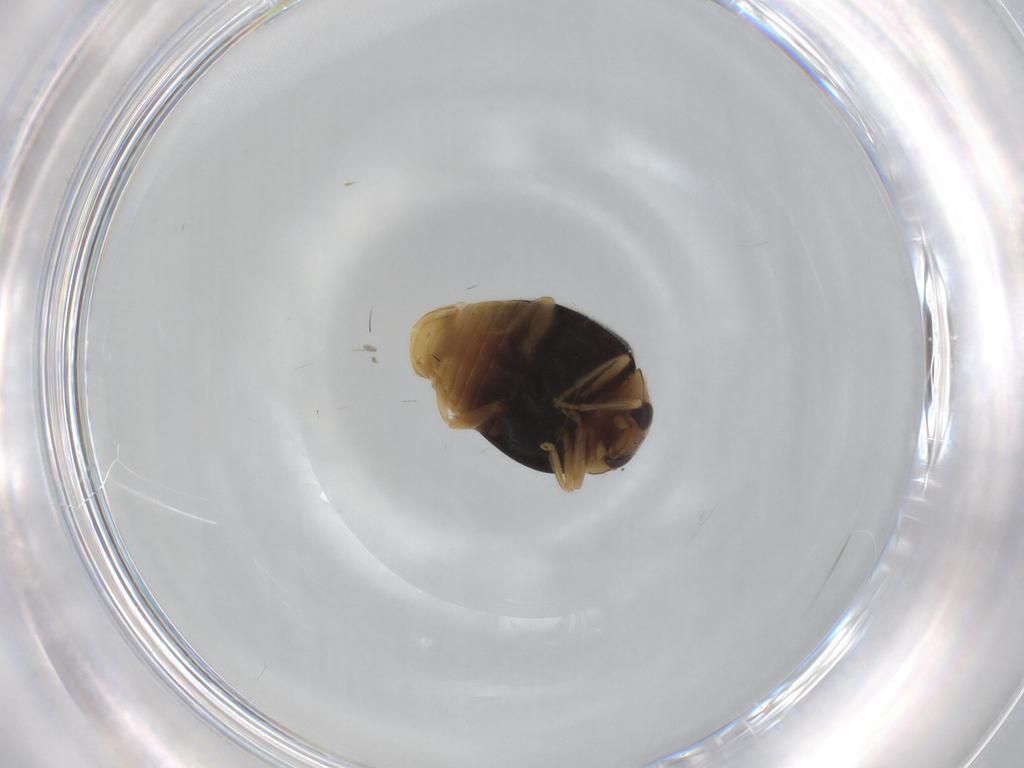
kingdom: Animalia
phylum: Arthropoda
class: Insecta
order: Coleoptera
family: Coccinellidae
